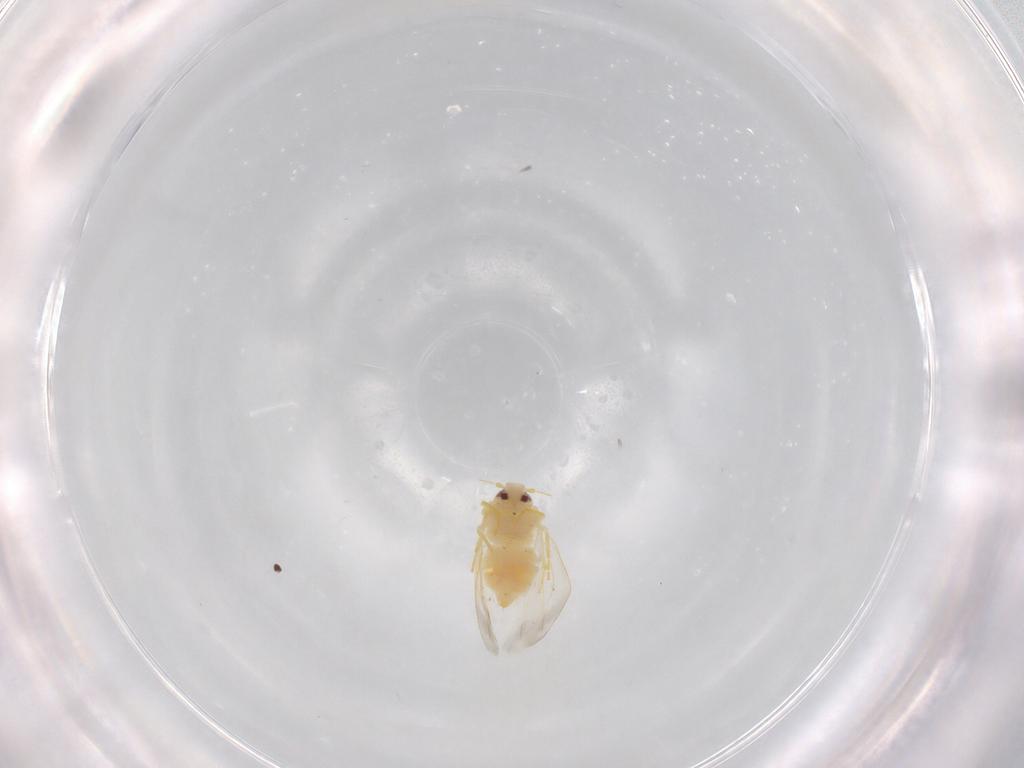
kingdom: Animalia
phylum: Arthropoda
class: Insecta
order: Hemiptera
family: Aleyrodidae
